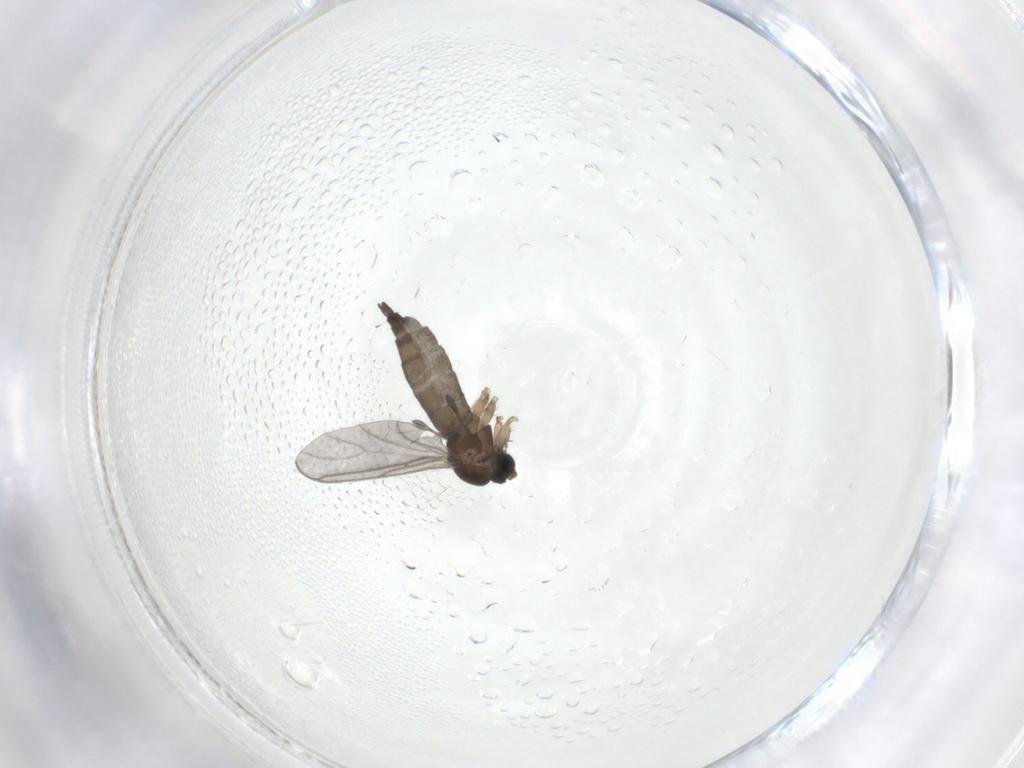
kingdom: Animalia
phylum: Arthropoda
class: Insecta
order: Diptera
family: Sciaridae
